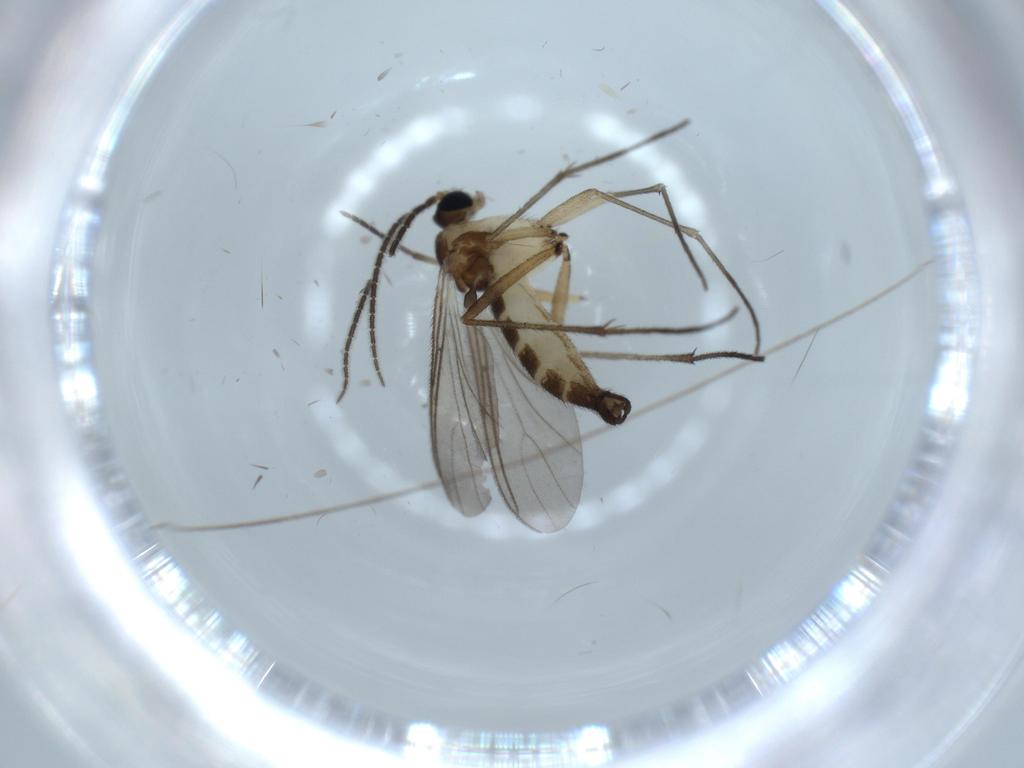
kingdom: Animalia
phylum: Arthropoda
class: Insecta
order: Diptera
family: Sciaridae
